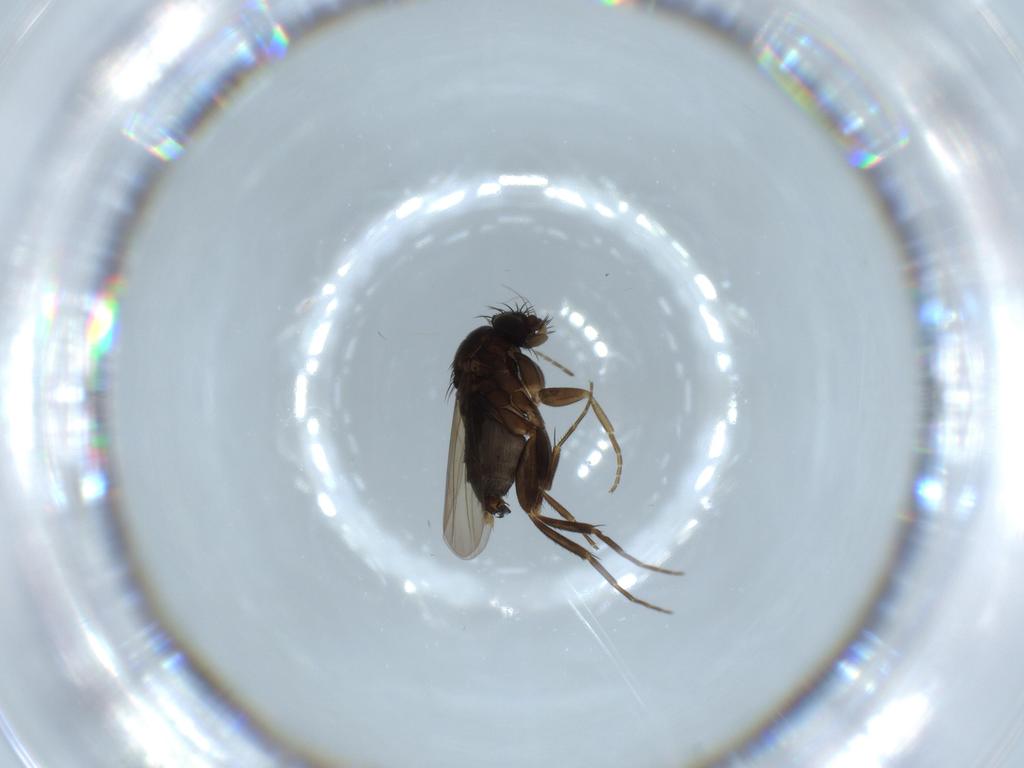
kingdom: Animalia
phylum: Arthropoda
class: Insecta
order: Diptera
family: Phoridae
